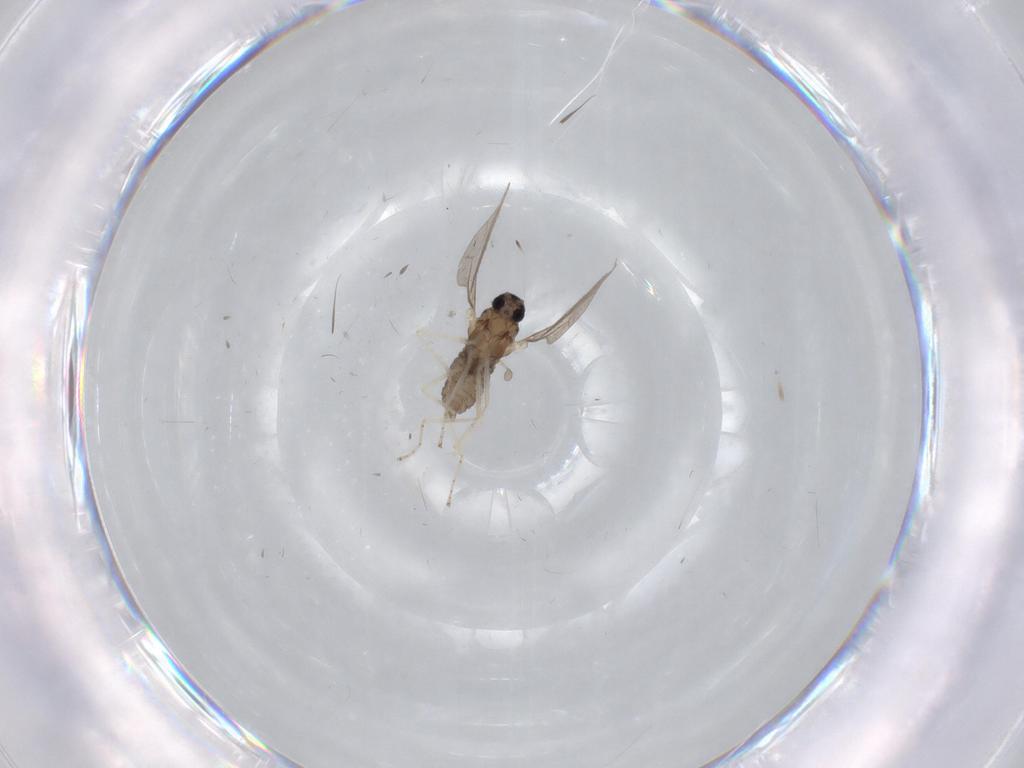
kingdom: Animalia
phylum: Arthropoda
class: Insecta
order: Diptera
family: Cecidomyiidae
